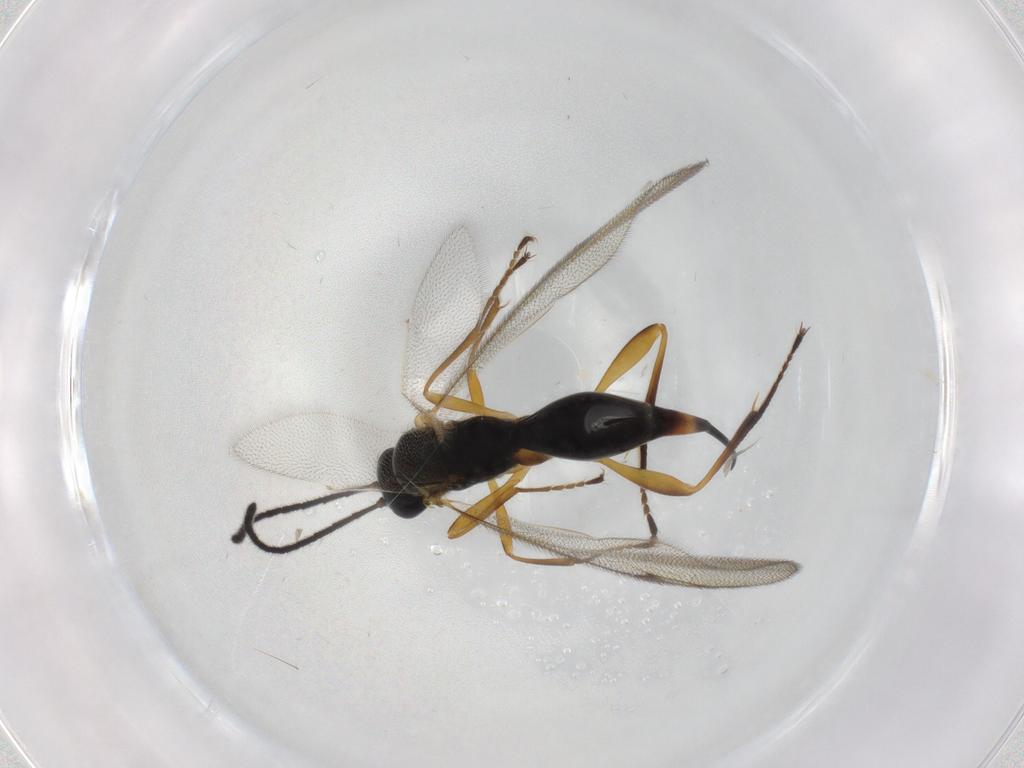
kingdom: Animalia
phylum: Arthropoda
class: Insecta
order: Hymenoptera
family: Proctotrupidae
